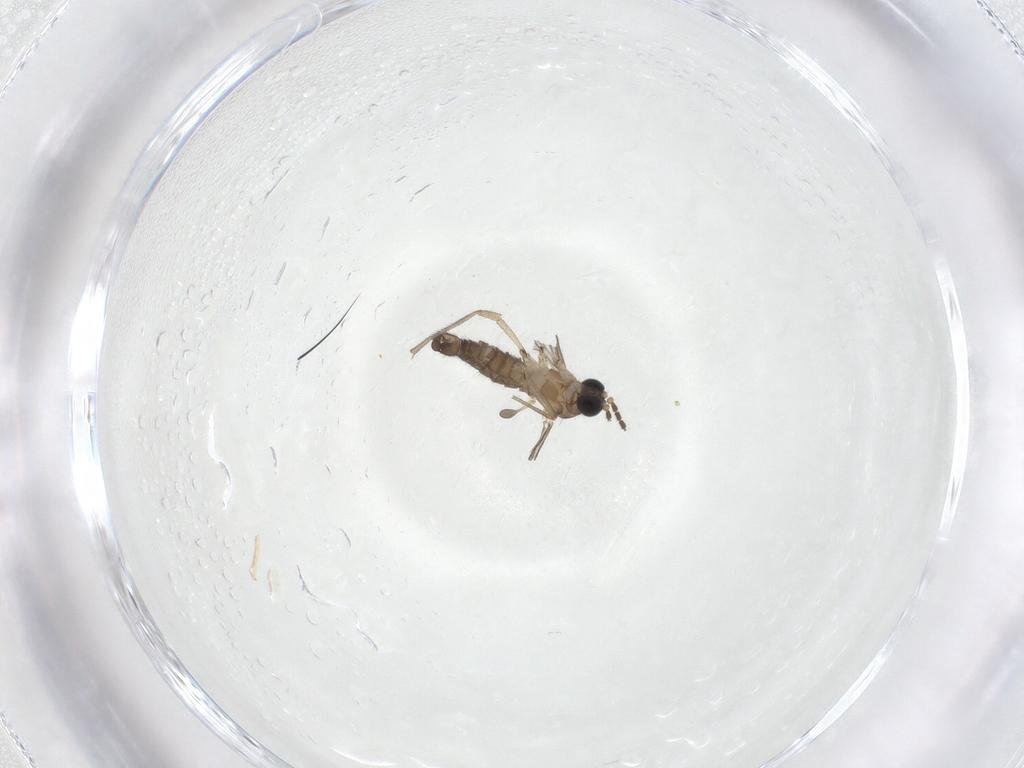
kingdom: Animalia
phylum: Arthropoda
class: Insecta
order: Diptera
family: Sciaridae
